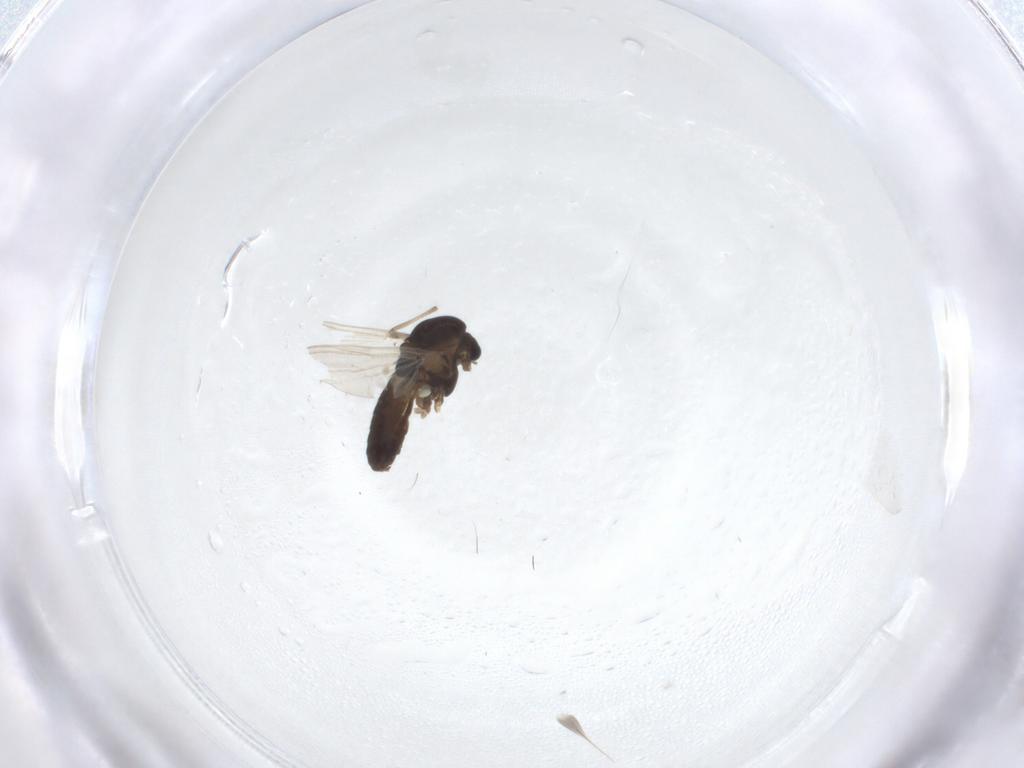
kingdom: Animalia
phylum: Arthropoda
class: Insecta
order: Diptera
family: Chironomidae
